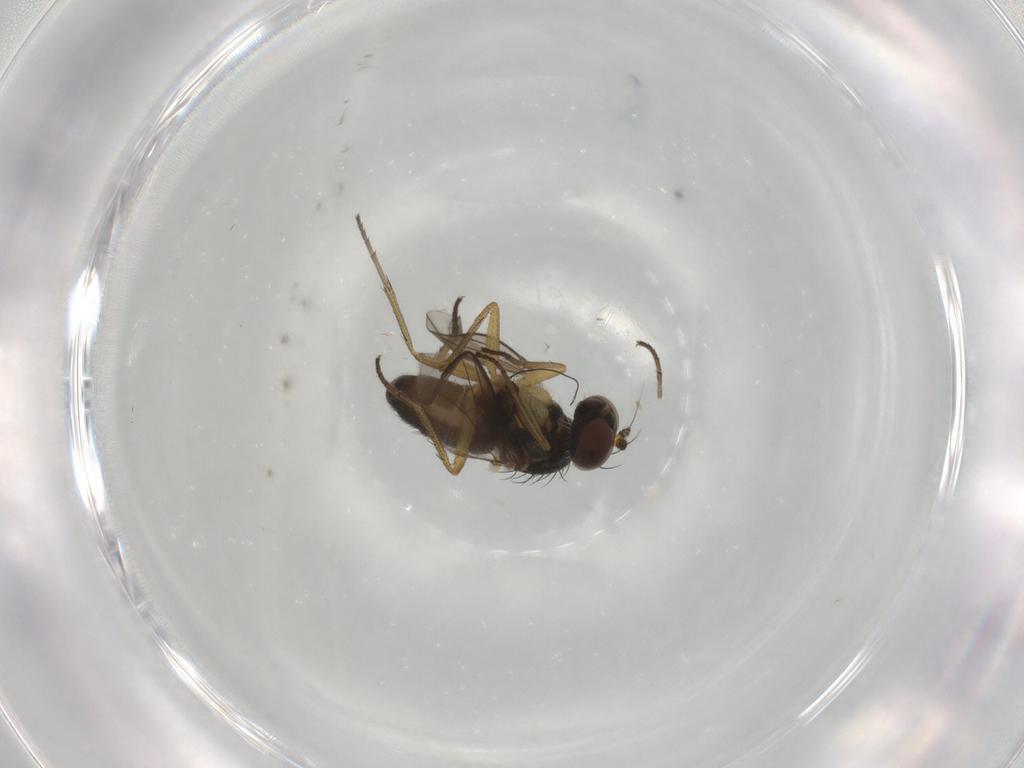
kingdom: Animalia
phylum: Arthropoda
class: Insecta
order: Diptera
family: Dolichopodidae
